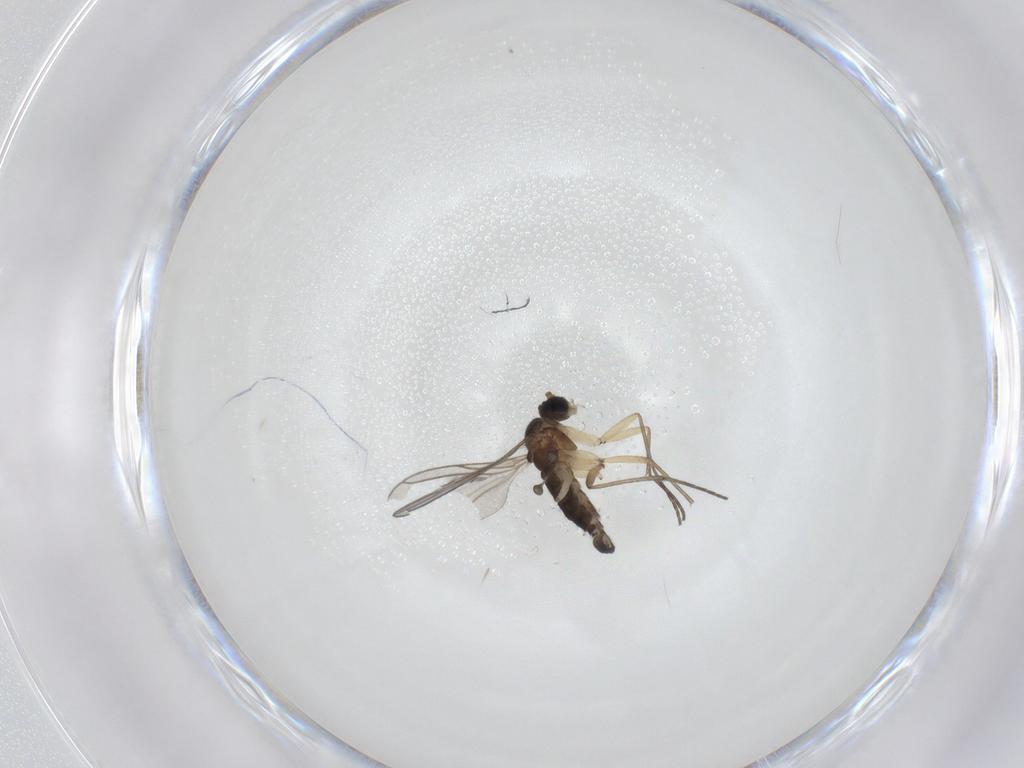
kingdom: Animalia
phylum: Arthropoda
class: Insecta
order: Diptera
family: Sciaridae
